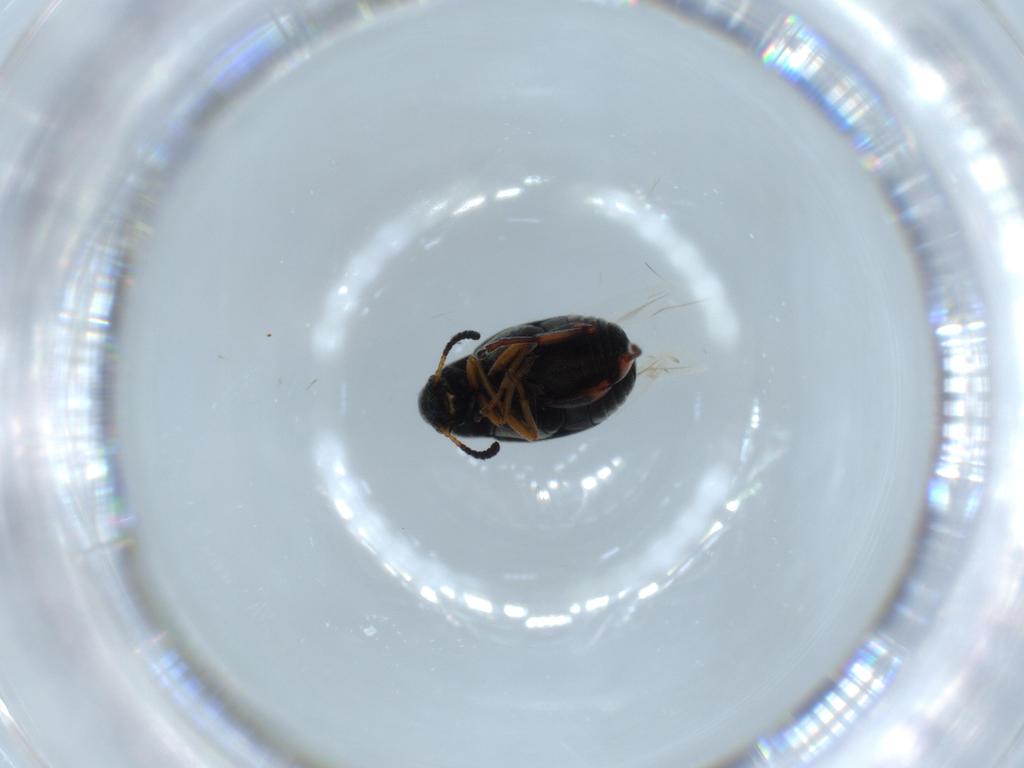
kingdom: Animalia
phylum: Arthropoda
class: Insecta
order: Coleoptera
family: Chrysomelidae
